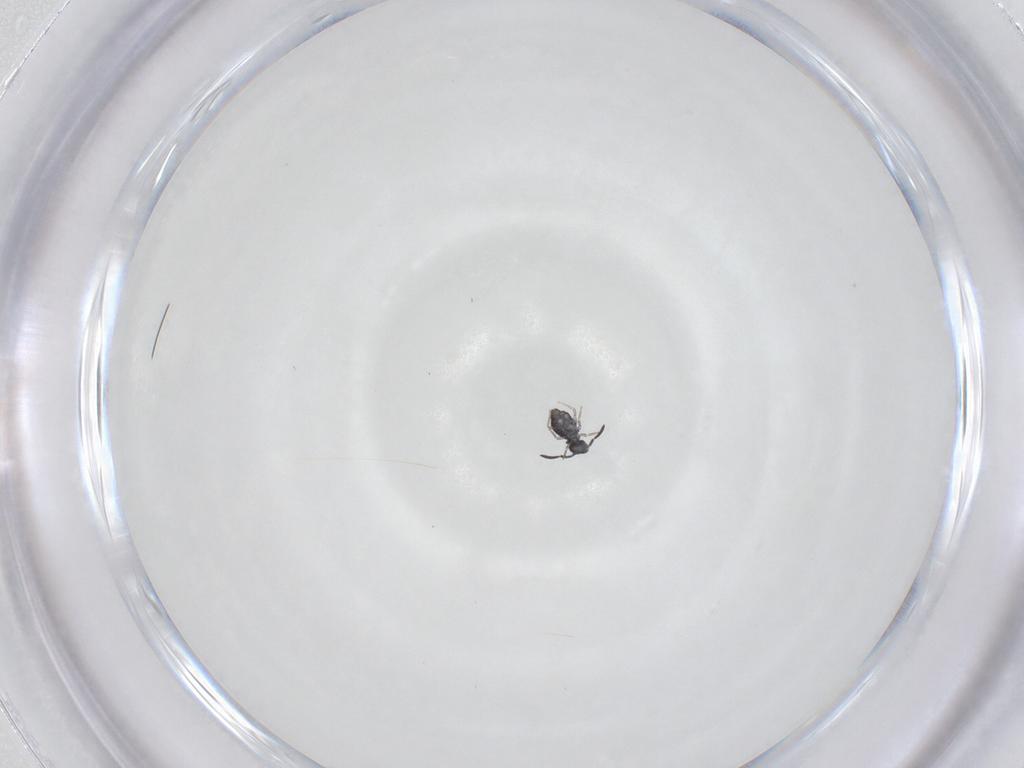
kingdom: Animalia
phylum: Arthropoda
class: Collembola
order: Symphypleona
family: Katiannidae
